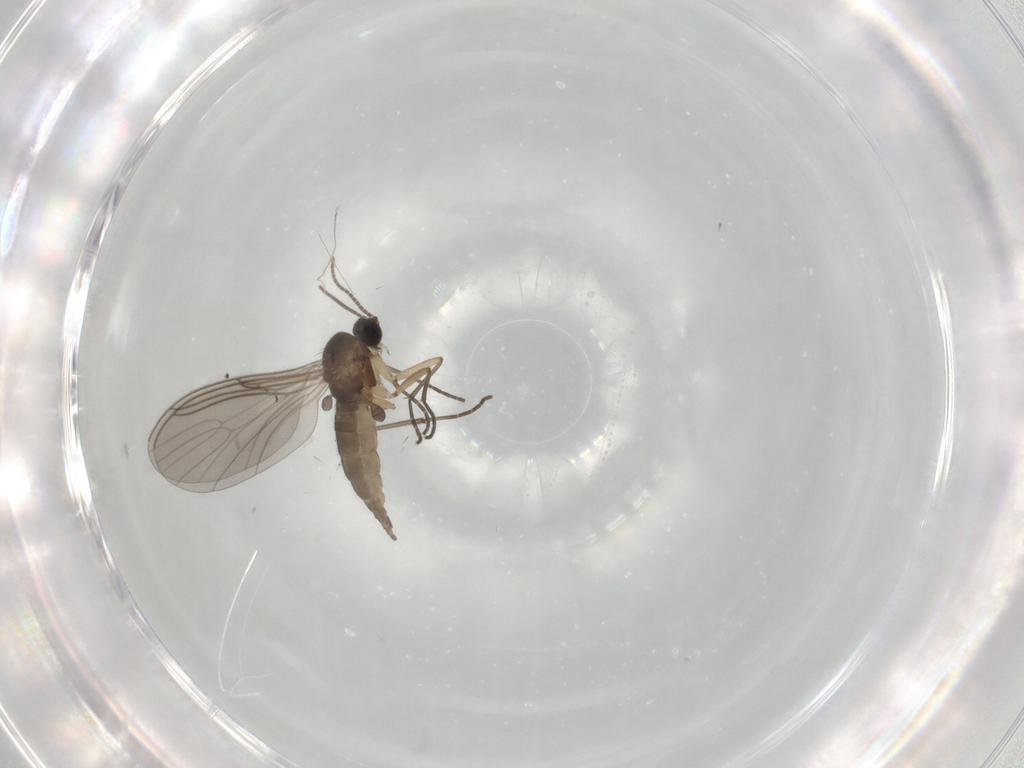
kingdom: Animalia
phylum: Arthropoda
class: Insecta
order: Diptera
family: Sciaridae
